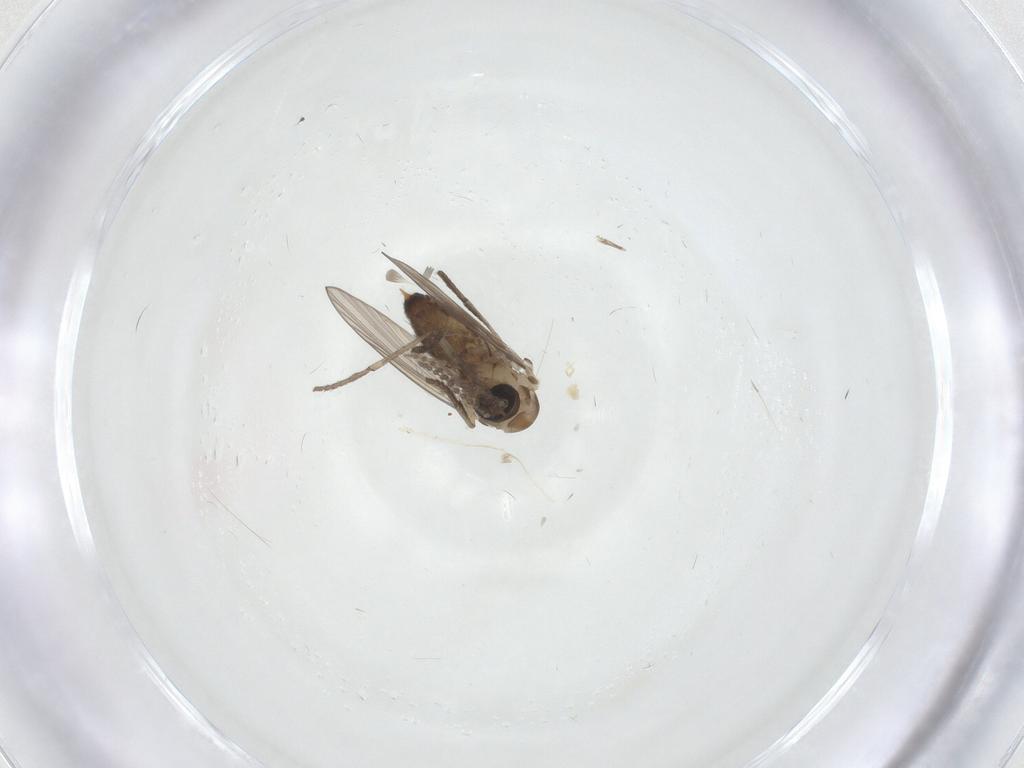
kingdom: Animalia
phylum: Arthropoda
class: Insecta
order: Diptera
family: Psychodidae
